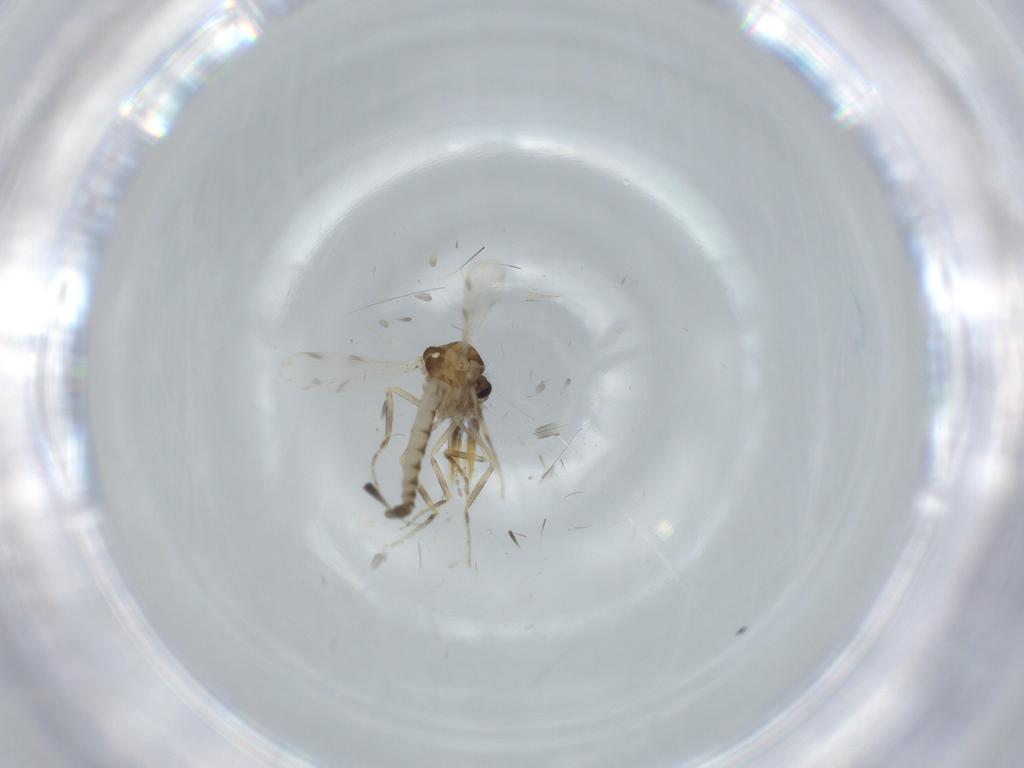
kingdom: Animalia
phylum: Arthropoda
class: Insecta
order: Diptera
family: Ceratopogonidae
